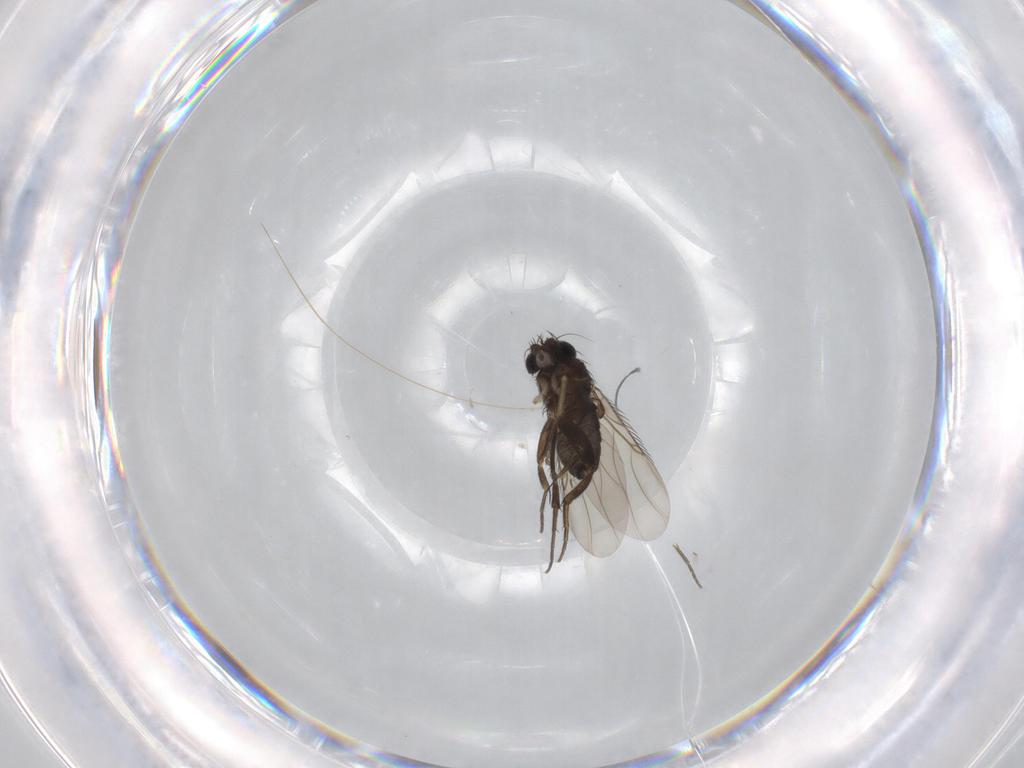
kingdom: Animalia
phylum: Arthropoda
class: Insecta
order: Diptera
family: Phoridae
